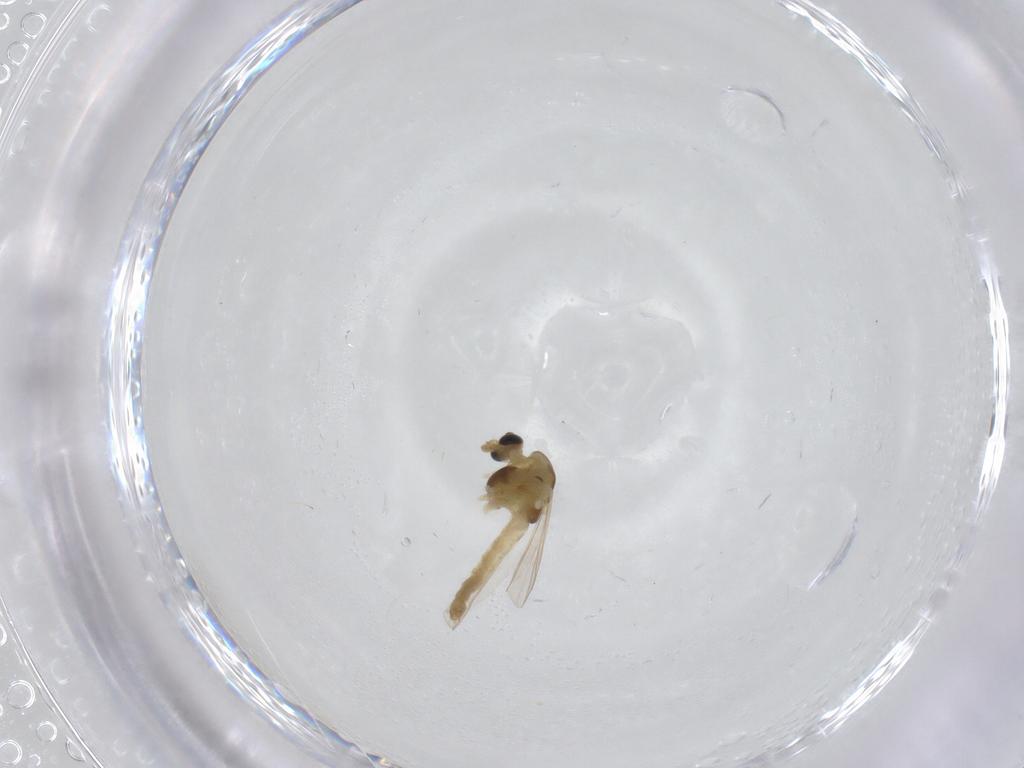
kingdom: Animalia
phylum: Arthropoda
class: Insecta
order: Diptera
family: Chironomidae
